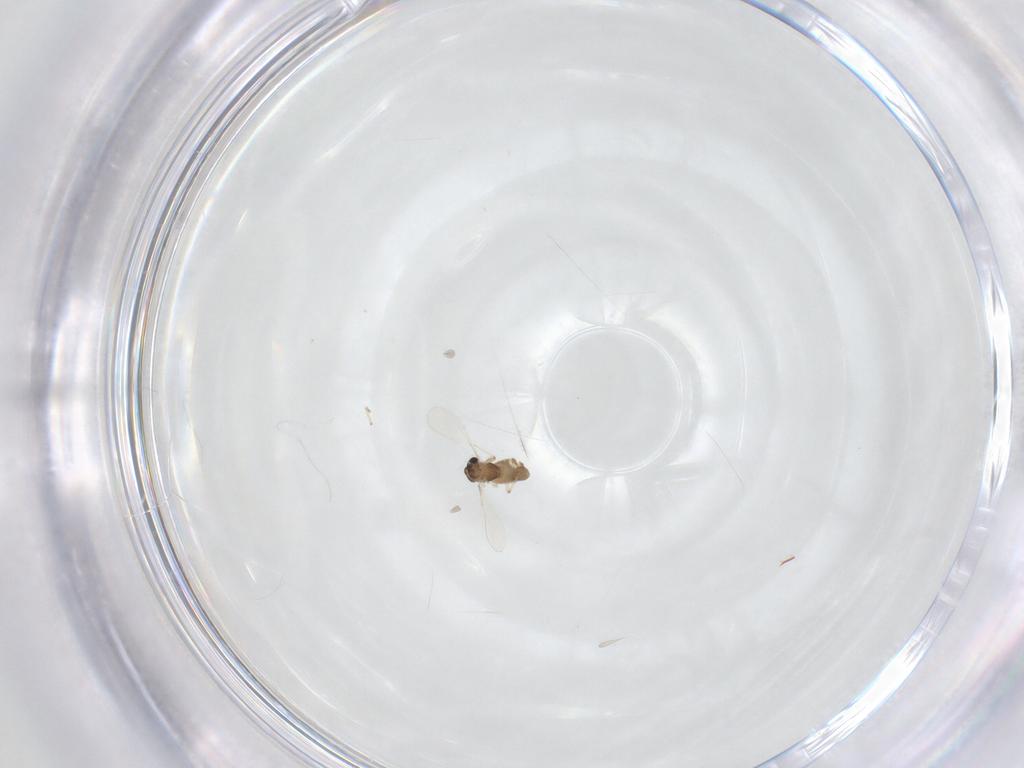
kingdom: Animalia
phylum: Arthropoda
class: Insecta
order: Diptera
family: Chironomidae
